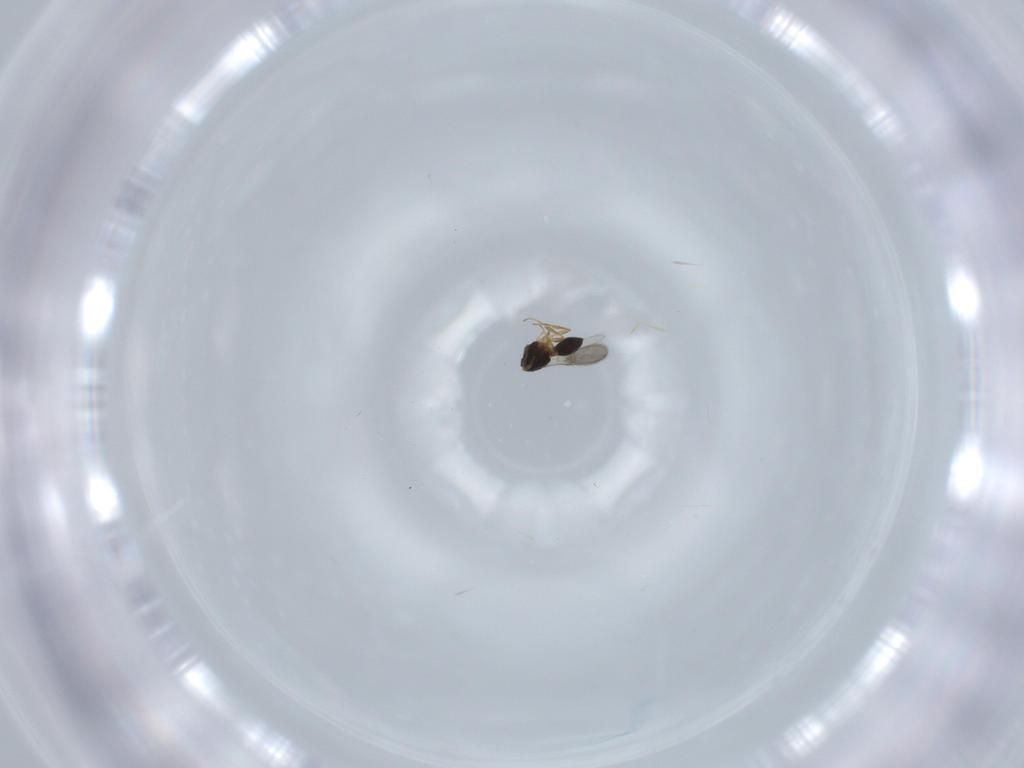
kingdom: Animalia
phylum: Arthropoda
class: Insecta
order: Hymenoptera
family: Scelionidae
